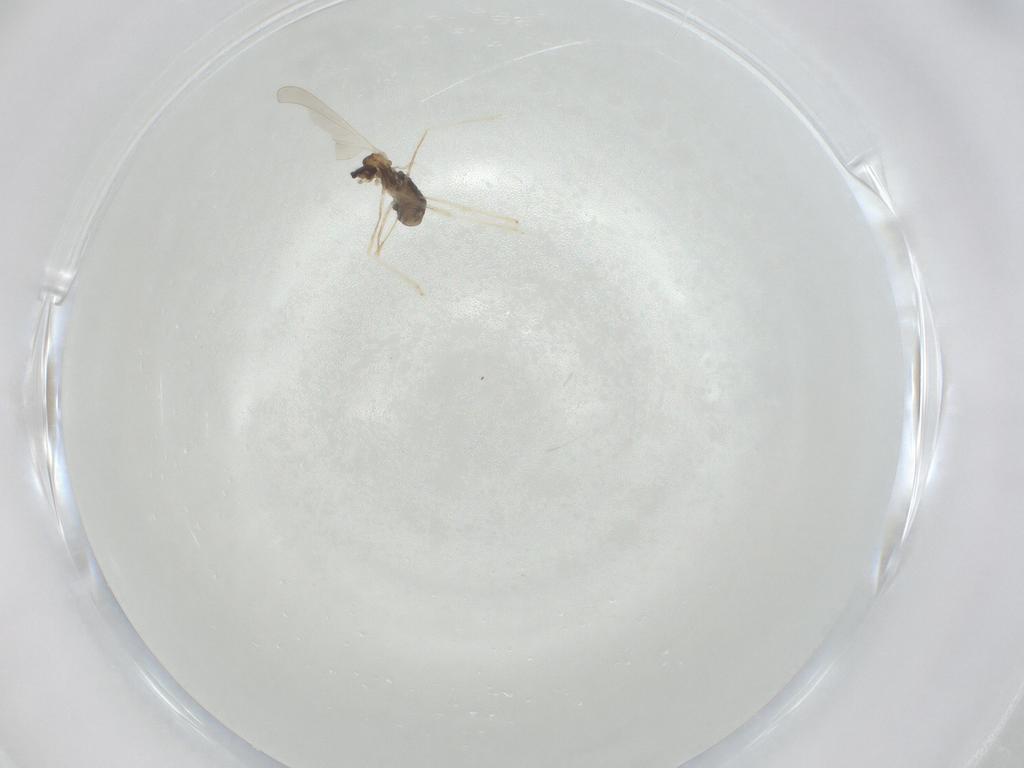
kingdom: Animalia
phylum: Arthropoda
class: Insecta
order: Diptera
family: Cecidomyiidae
